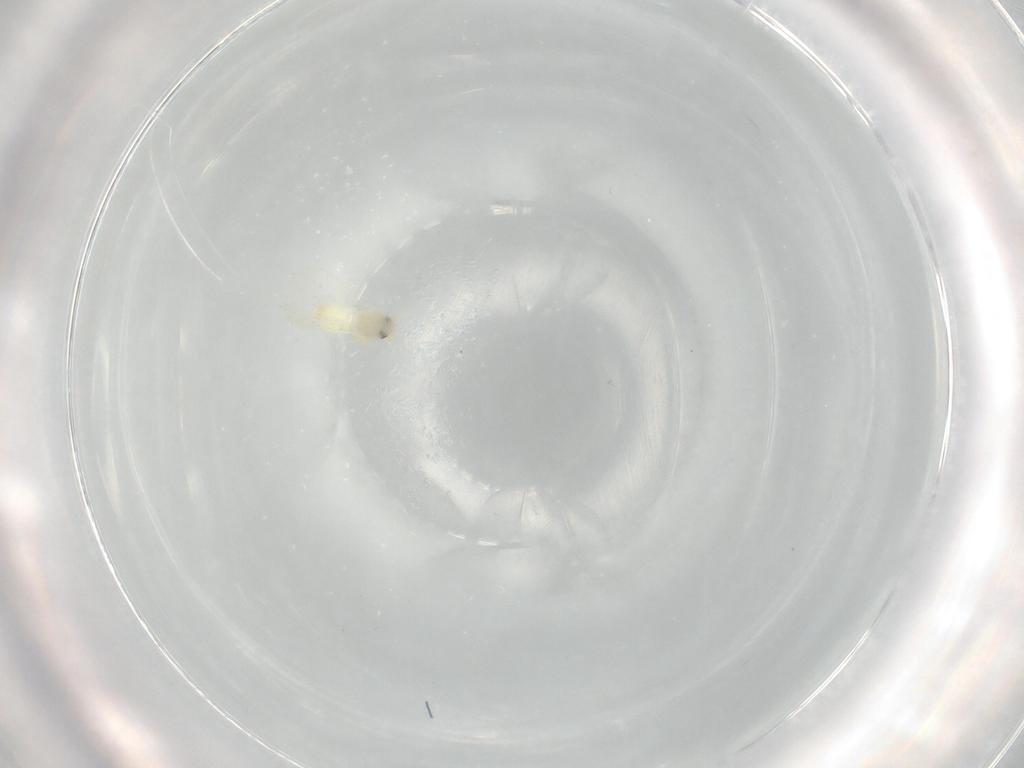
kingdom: Animalia
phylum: Arthropoda
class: Insecta
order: Hemiptera
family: Aleyrodidae
